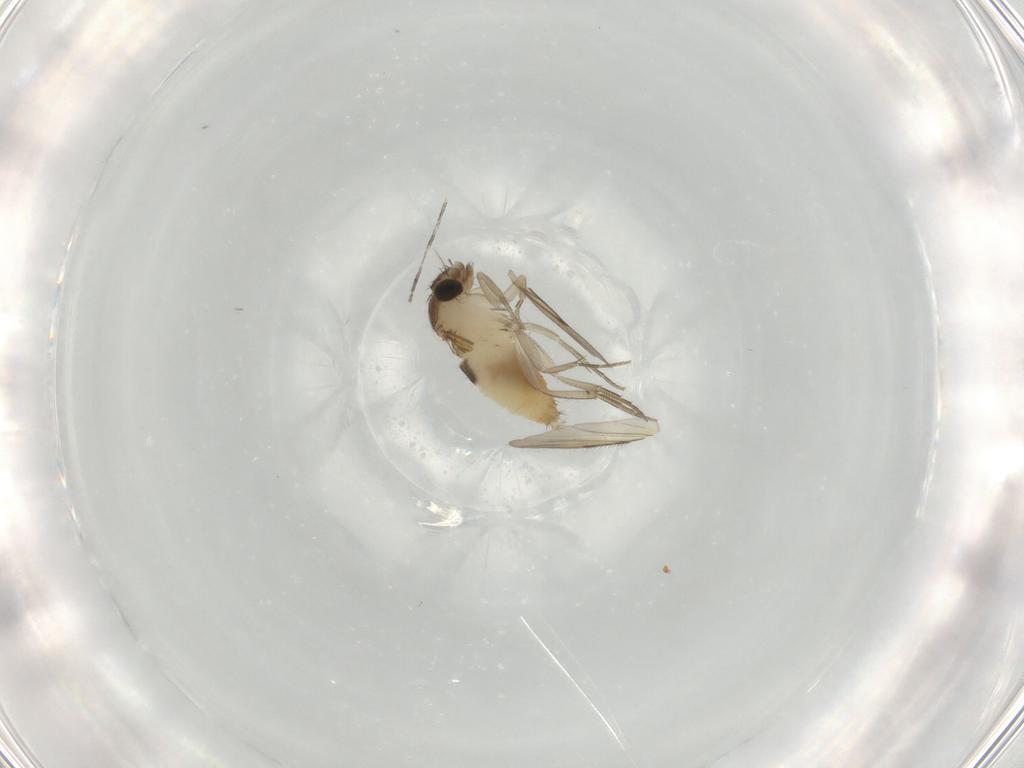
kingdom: Animalia
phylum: Arthropoda
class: Insecta
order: Diptera
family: Cecidomyiidae
